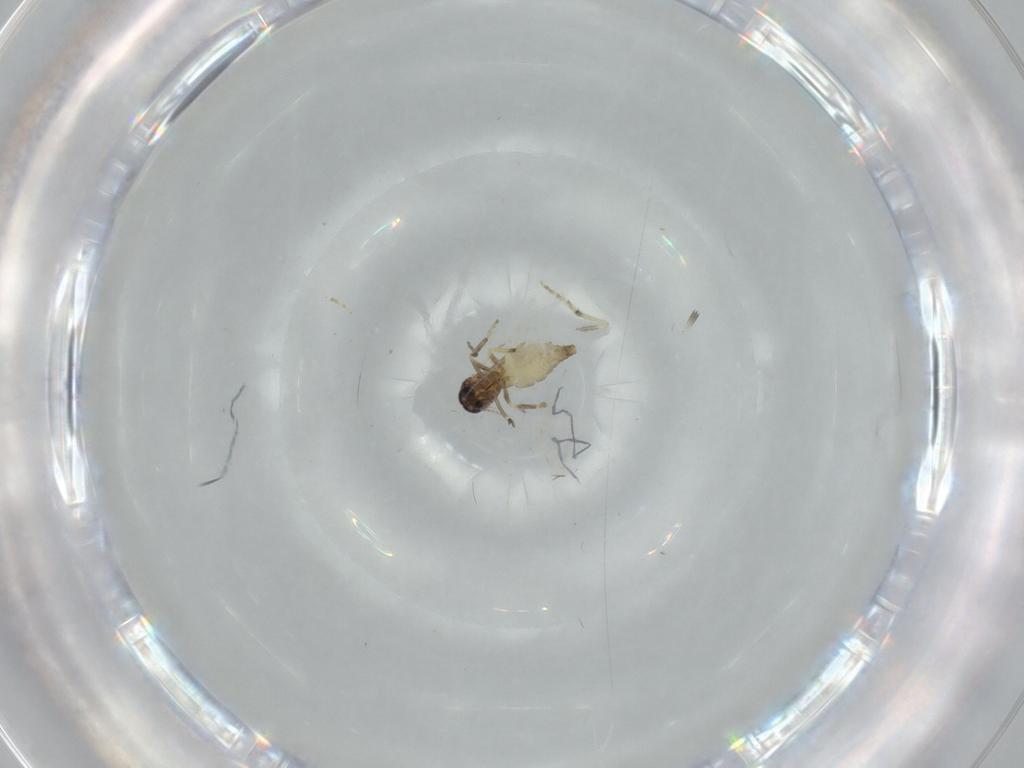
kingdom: Animalia
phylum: Arthropoda
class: Insecta
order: Diptera
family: Ceratopogonidae
